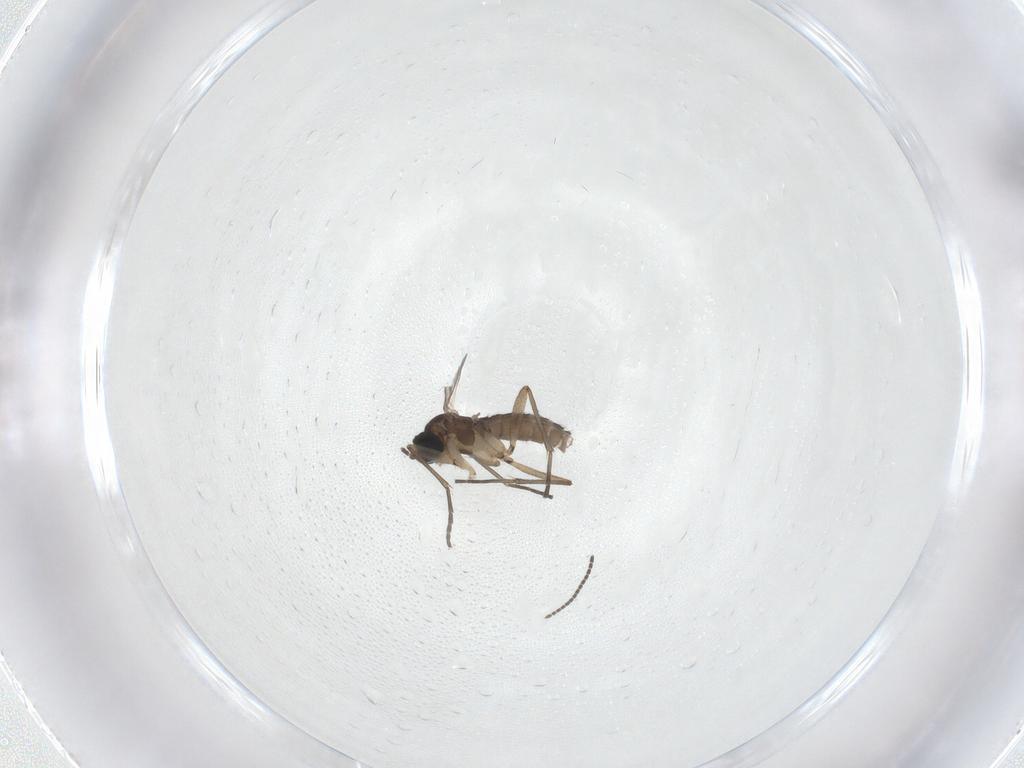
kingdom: Animalia
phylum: Arthropoda
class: Insecta
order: Diptera
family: Sciaridae
